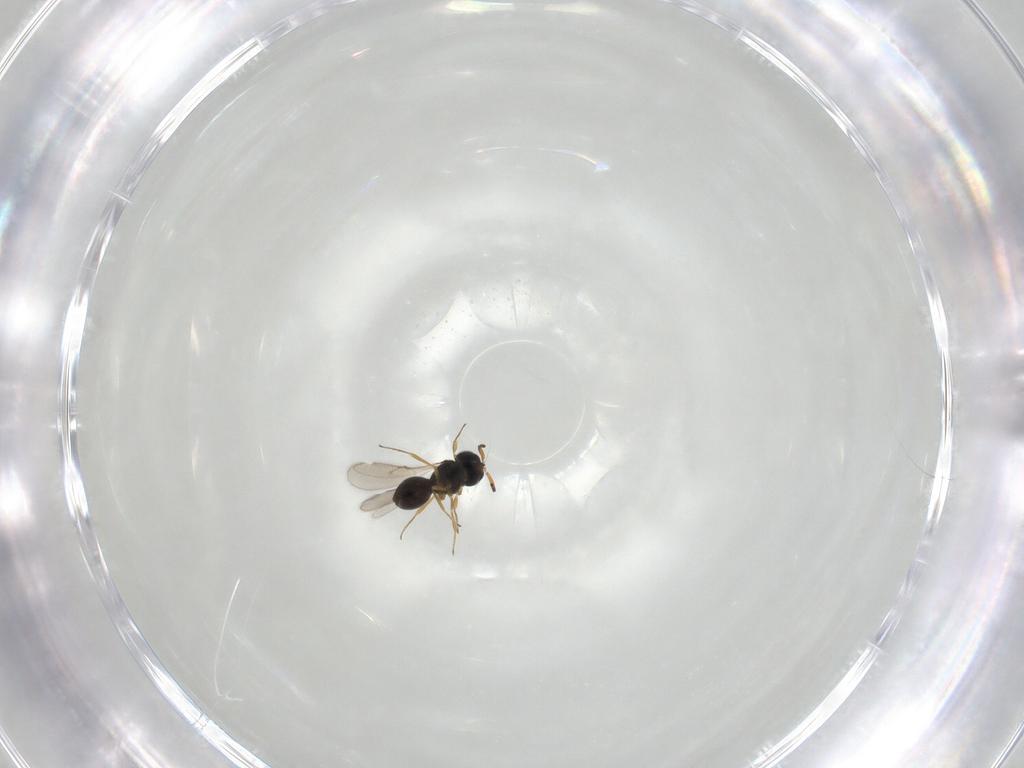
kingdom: Animalia
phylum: Arthropoda
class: Insecta
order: Hymenoptera
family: Scelionidae
